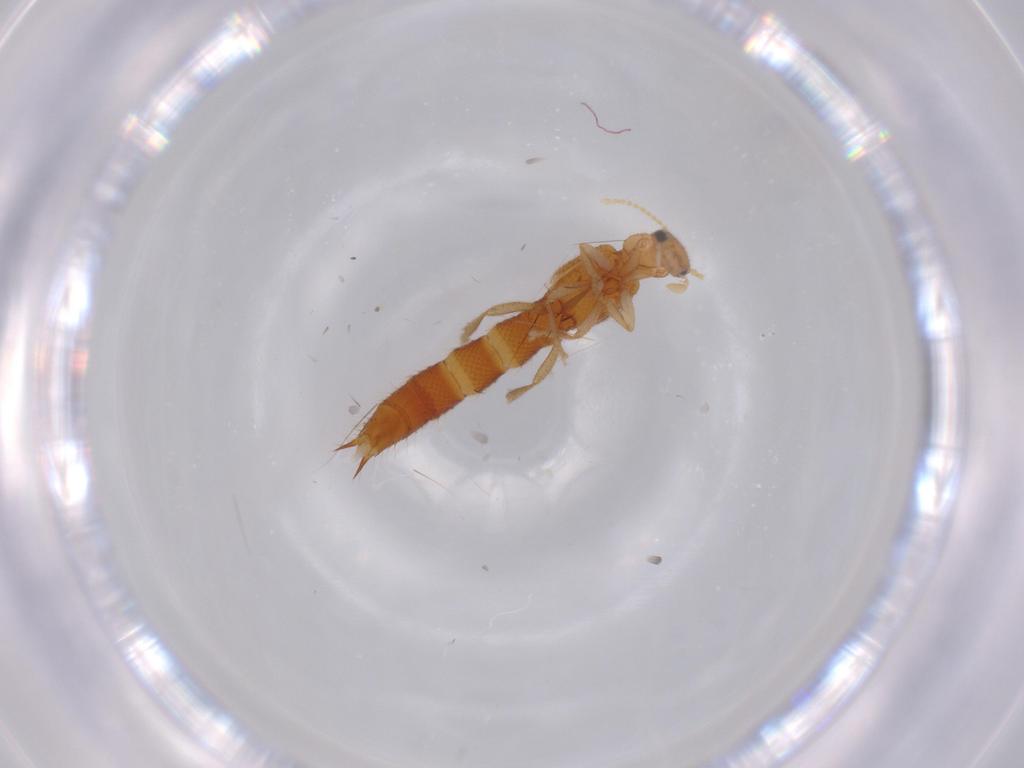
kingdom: Animalia
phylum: Arthropoda
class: Insecta
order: Coleoptera
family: Staphylinidae
